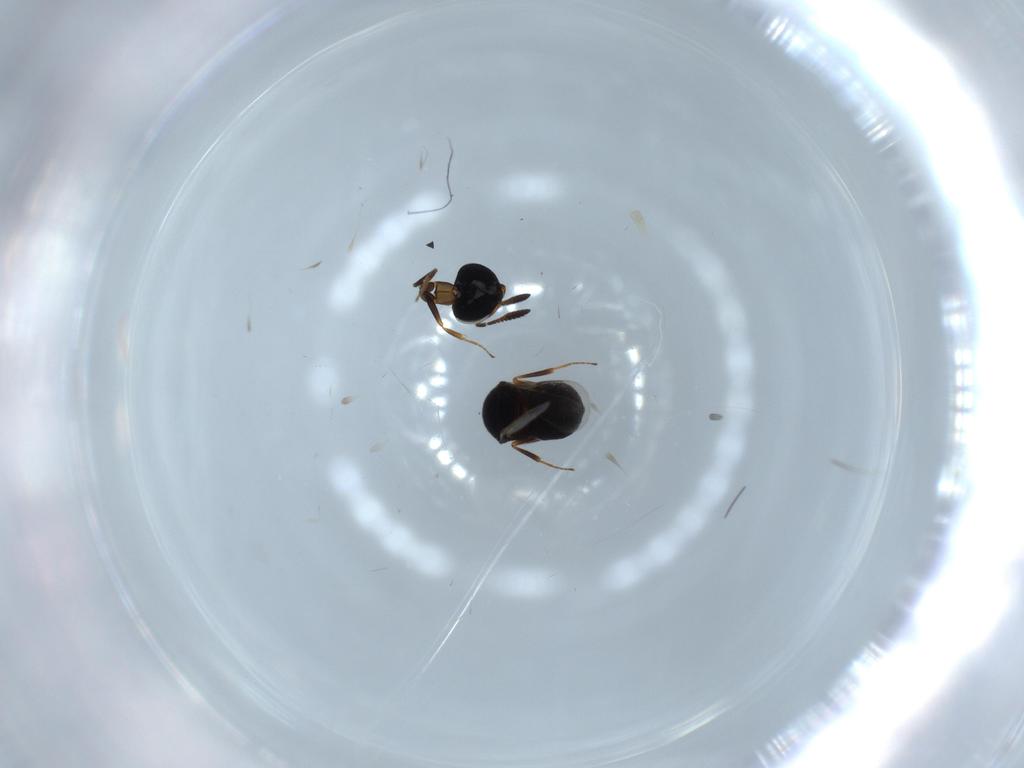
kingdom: Animalia
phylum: Arthropoda
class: Insecta
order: Hymenoptera
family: Scelionidae
